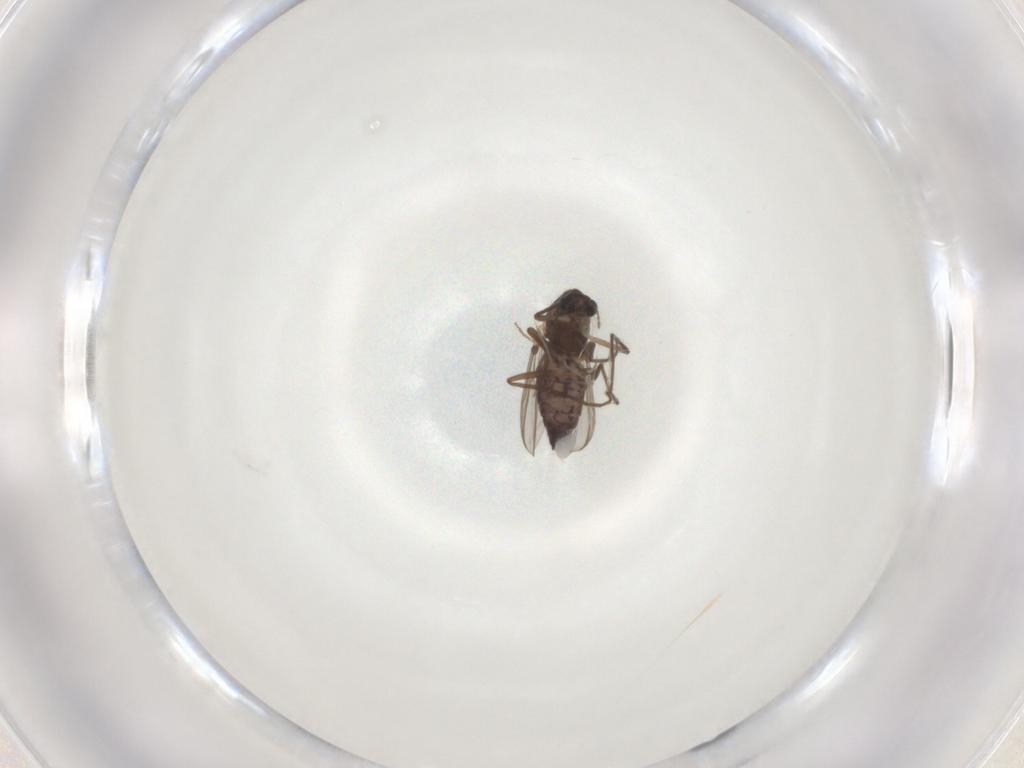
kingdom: Animalia
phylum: Arthropoda
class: Insecta
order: Diptera
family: Chironomidae
